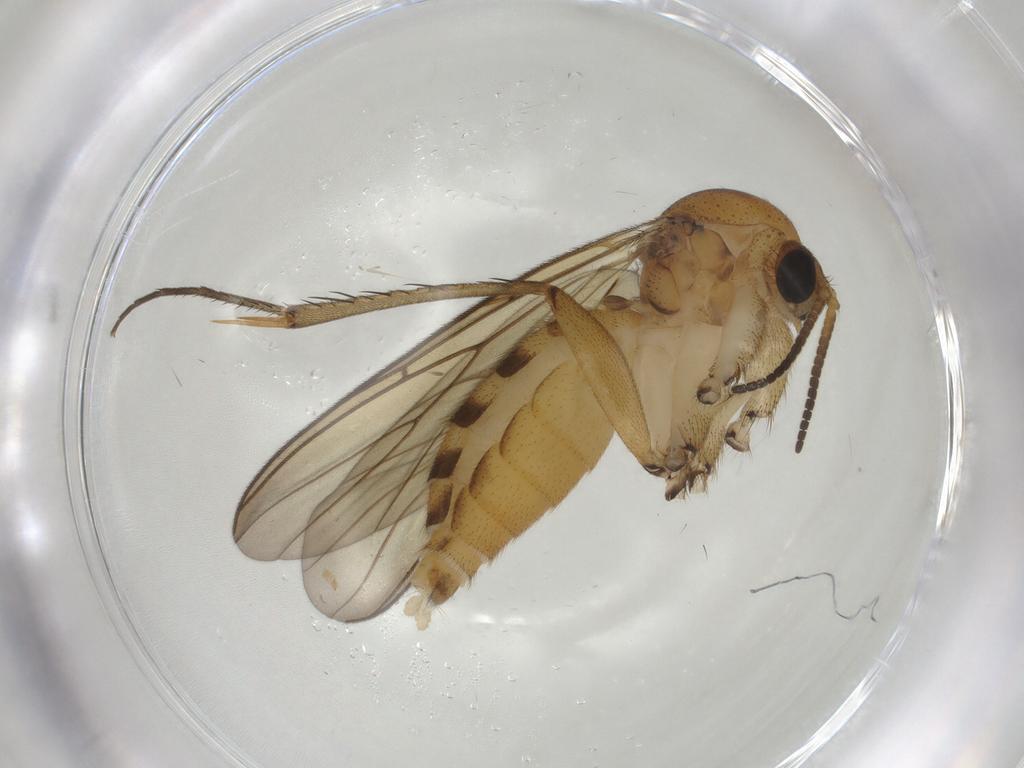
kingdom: Animalia
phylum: Arthropoda
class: Insecta
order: Diptera
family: Mycetophilidae
